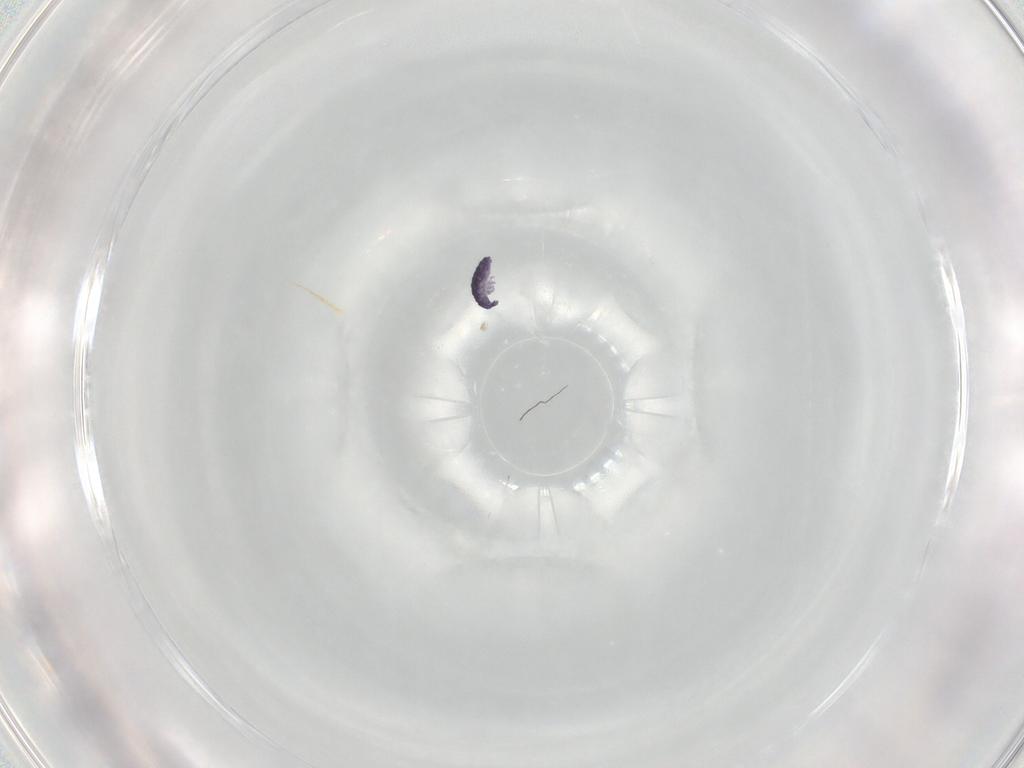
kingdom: Animalia
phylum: Arthropoda
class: Collembola
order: Entomobryomorpha
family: Entomobryidae
